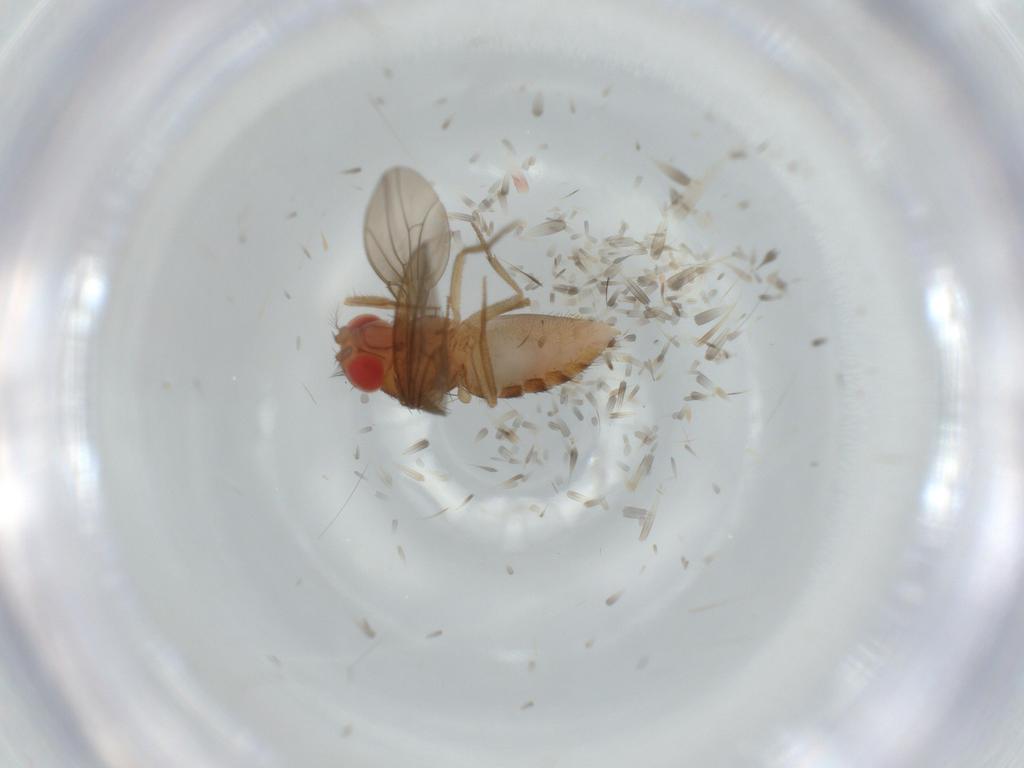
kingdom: Animalia
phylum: Arthropoda
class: Insecta
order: Diptera
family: Drosophilidae
